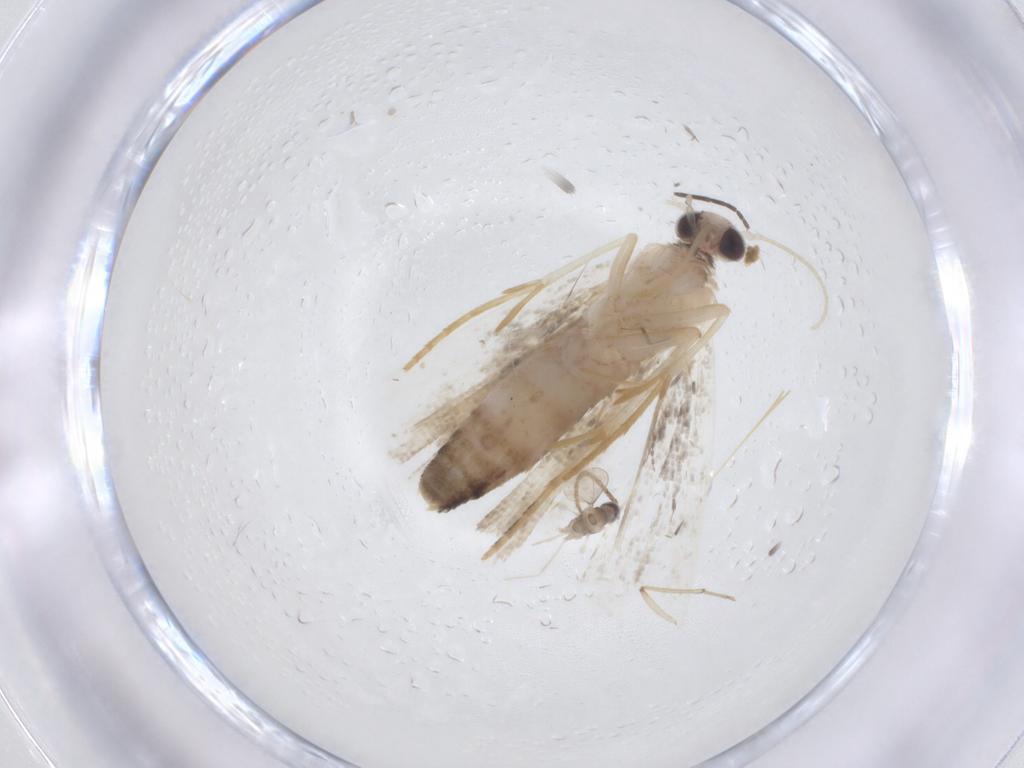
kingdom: Animalia
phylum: Arthropoda
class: Insecta
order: Lepidoptera
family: Erebidae
